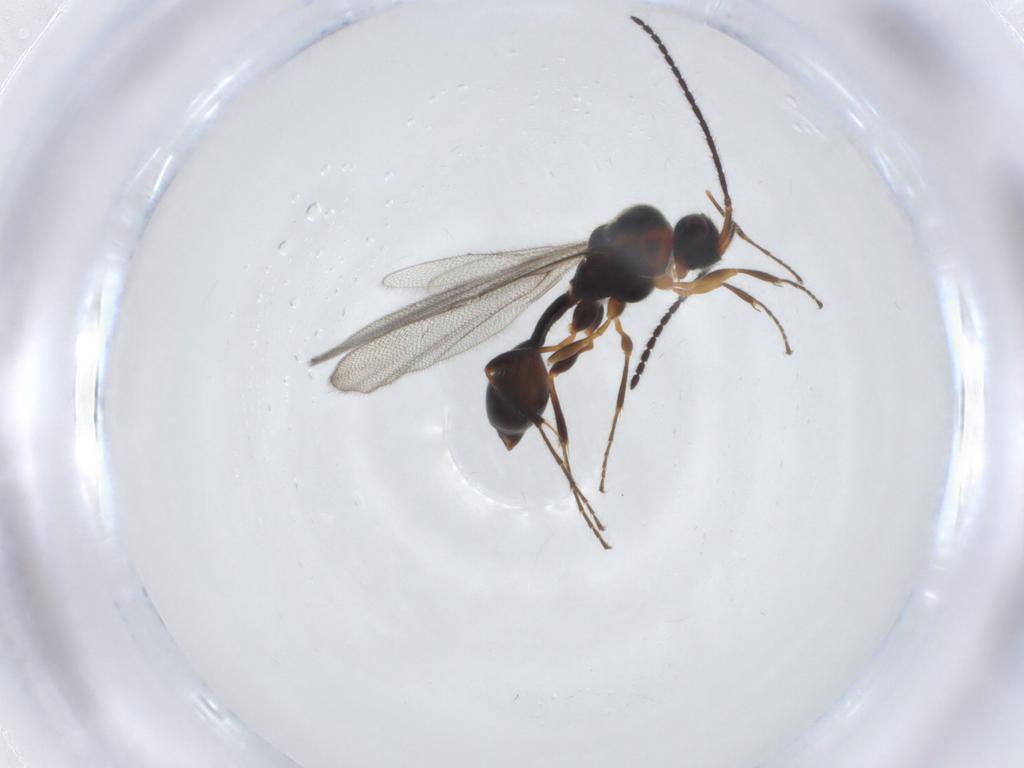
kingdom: Animalia
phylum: Arthropoda
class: Insecta
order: Hymenoptera
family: Diapriidae
